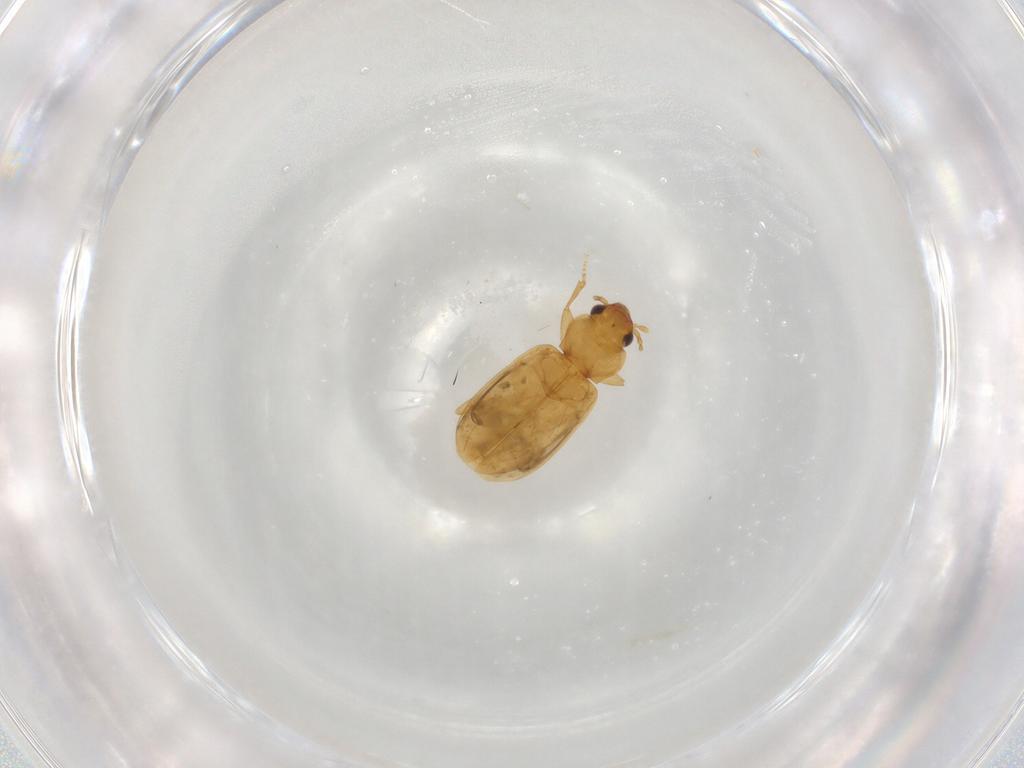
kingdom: Animalia
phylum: Arthropoda
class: Insecta
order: Coleoptera
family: Carabidae
